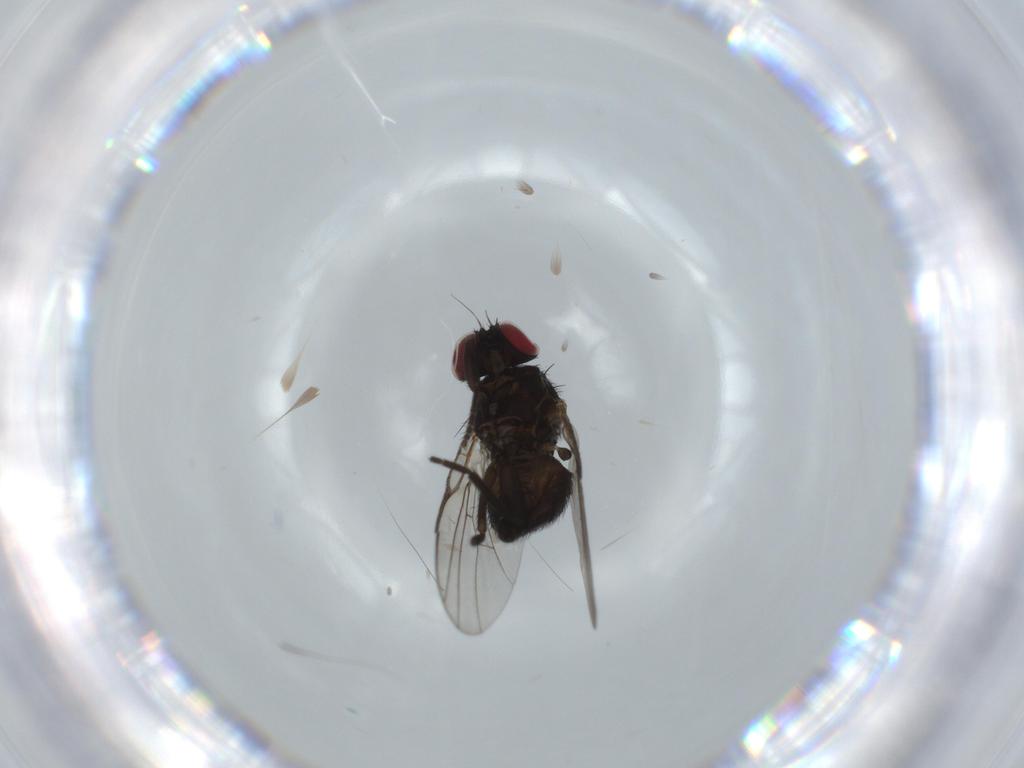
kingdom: Animalia
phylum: Arthropoda
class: Insecta
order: Diptera
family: Agromyzidae
